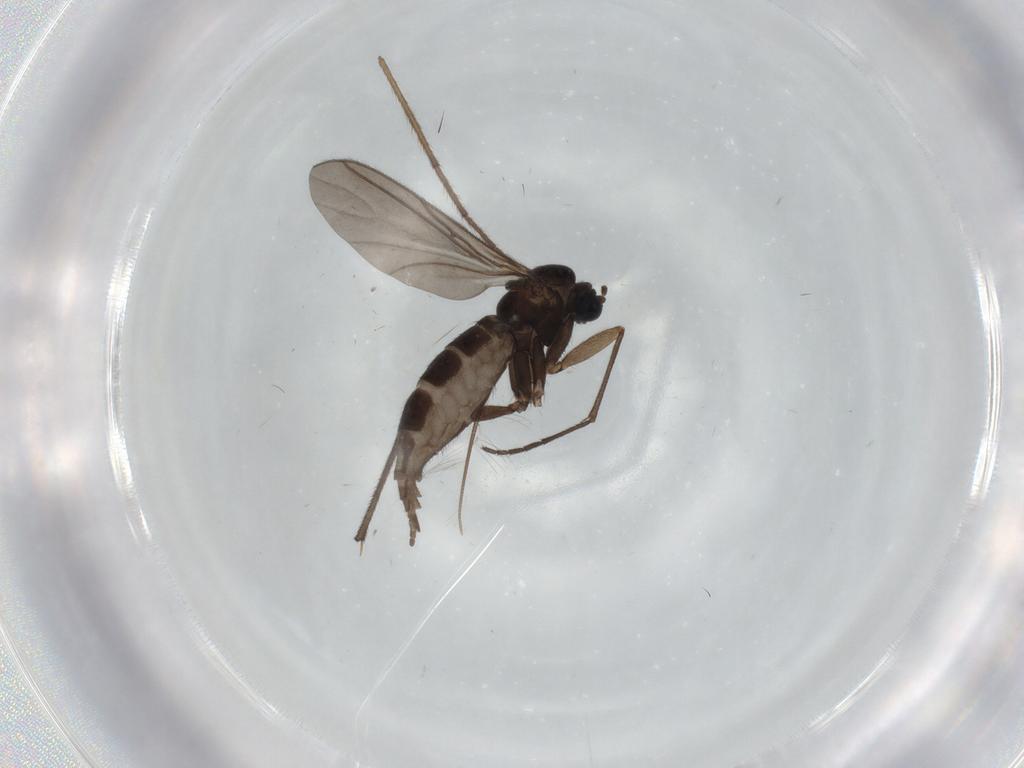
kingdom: Animalia
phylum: Arthropoda
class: Insecta
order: Diptera
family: Sciaridae
